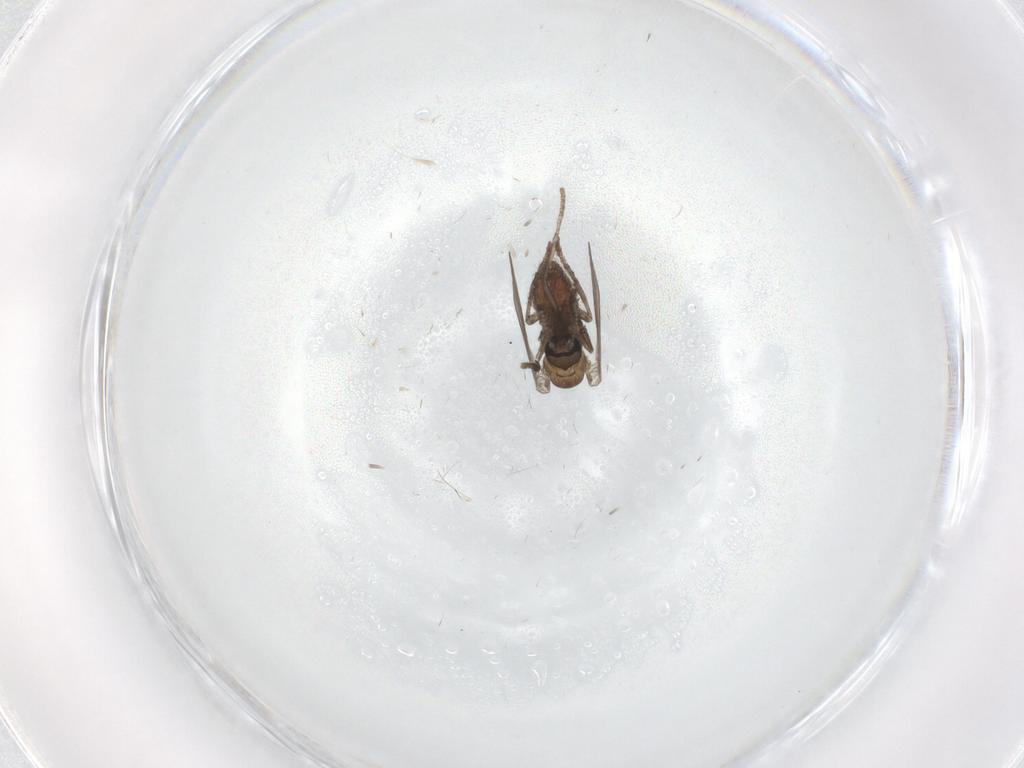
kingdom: Animalia
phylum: Arthropoda
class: Insecta
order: Diptera
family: Psychodidae
